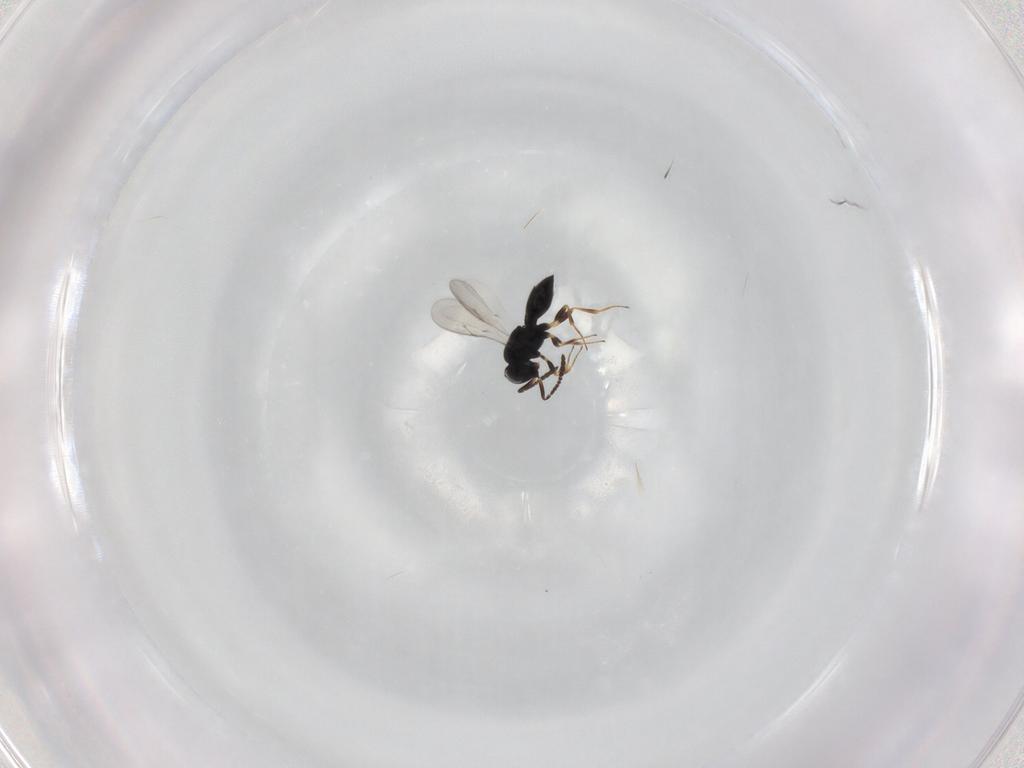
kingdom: Animalia
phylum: Arthropoda
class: Insecta
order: Hymenoptera
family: Scelionidae
